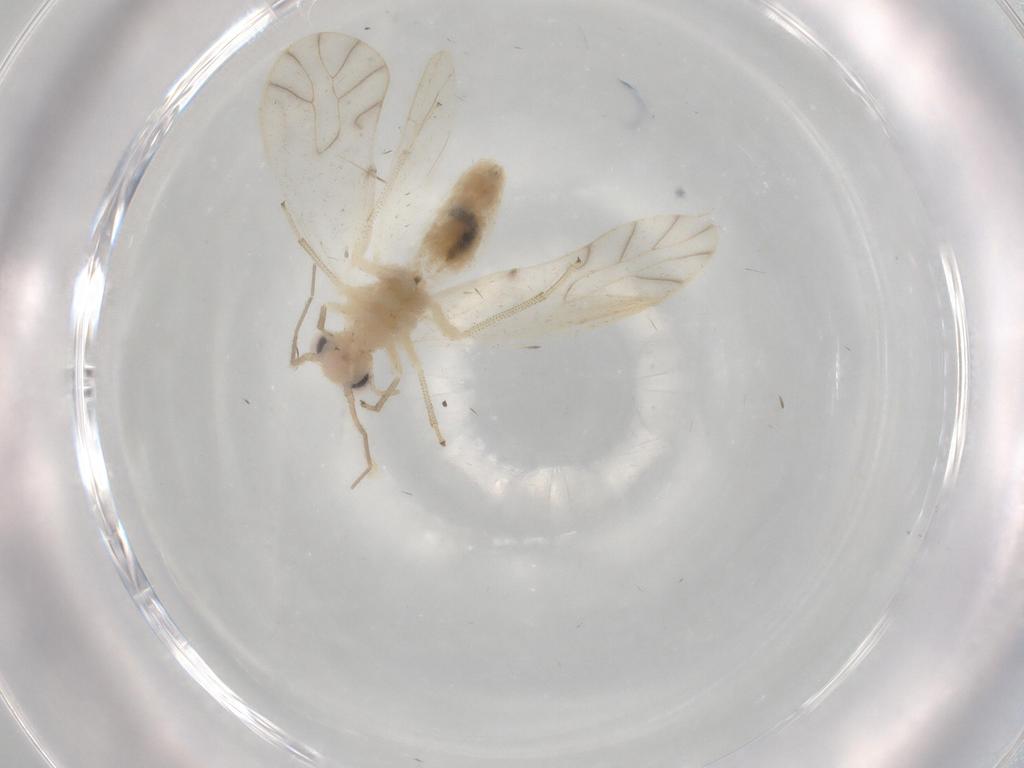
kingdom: Animalia
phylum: Arthropoda
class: Insecta
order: Psocodea
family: Caeciliusidae
